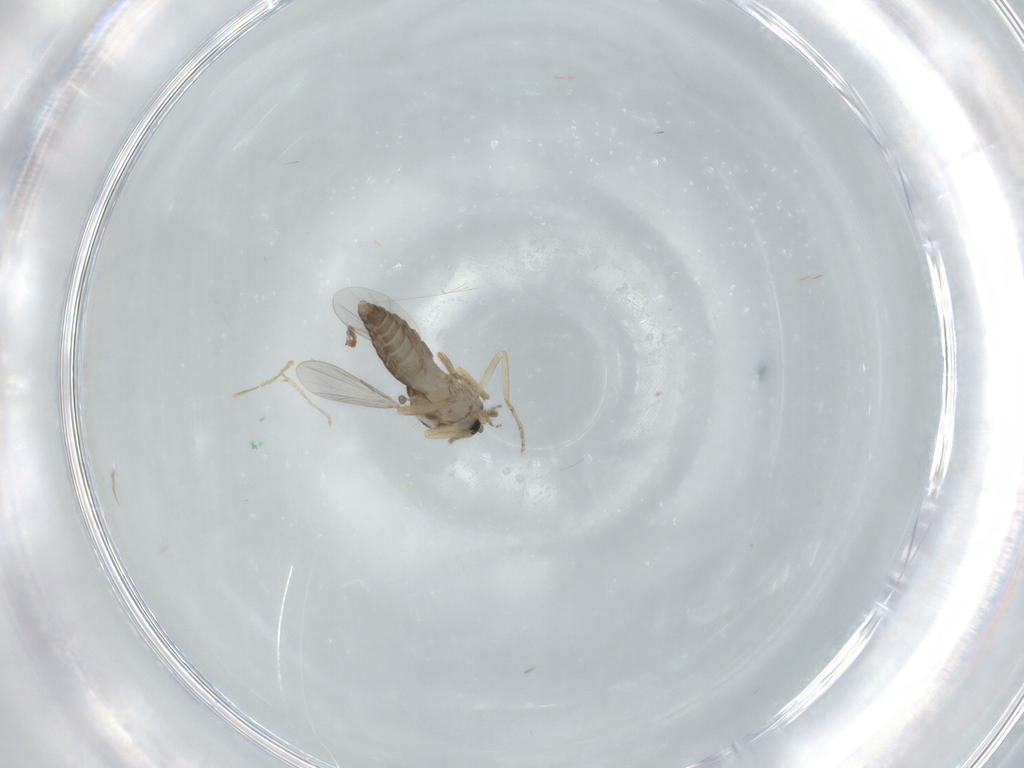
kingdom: Animalia
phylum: Arthropoda
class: Insecta
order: Diptera
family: Ceratopogonidae
